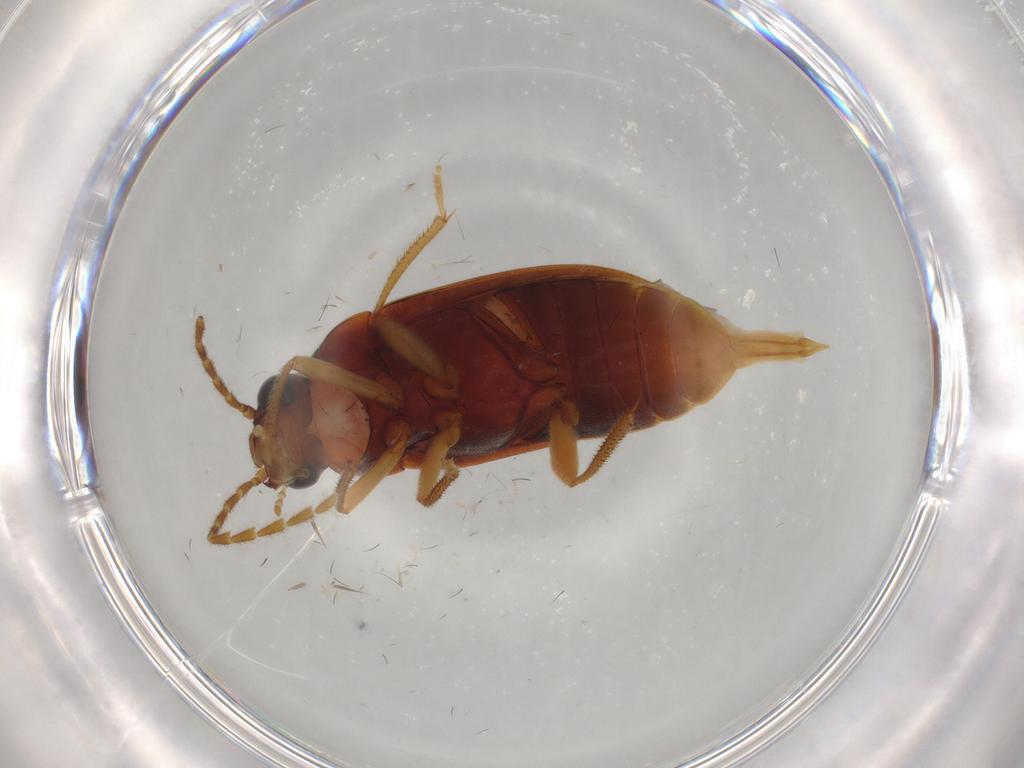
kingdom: Animalia
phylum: Arthropoda
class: Insecta
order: Coleoptera
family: Ptilodactylidae
